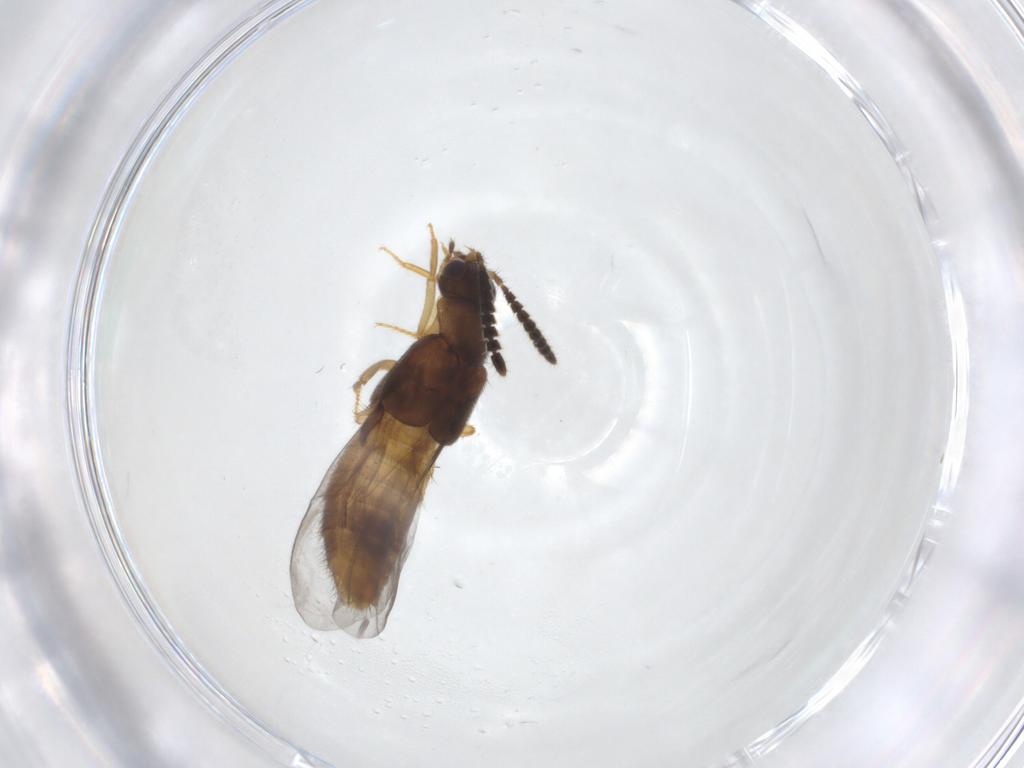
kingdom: Animalia
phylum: Arthropoda
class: Insecta
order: Coleoptera
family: Staphylinidae
